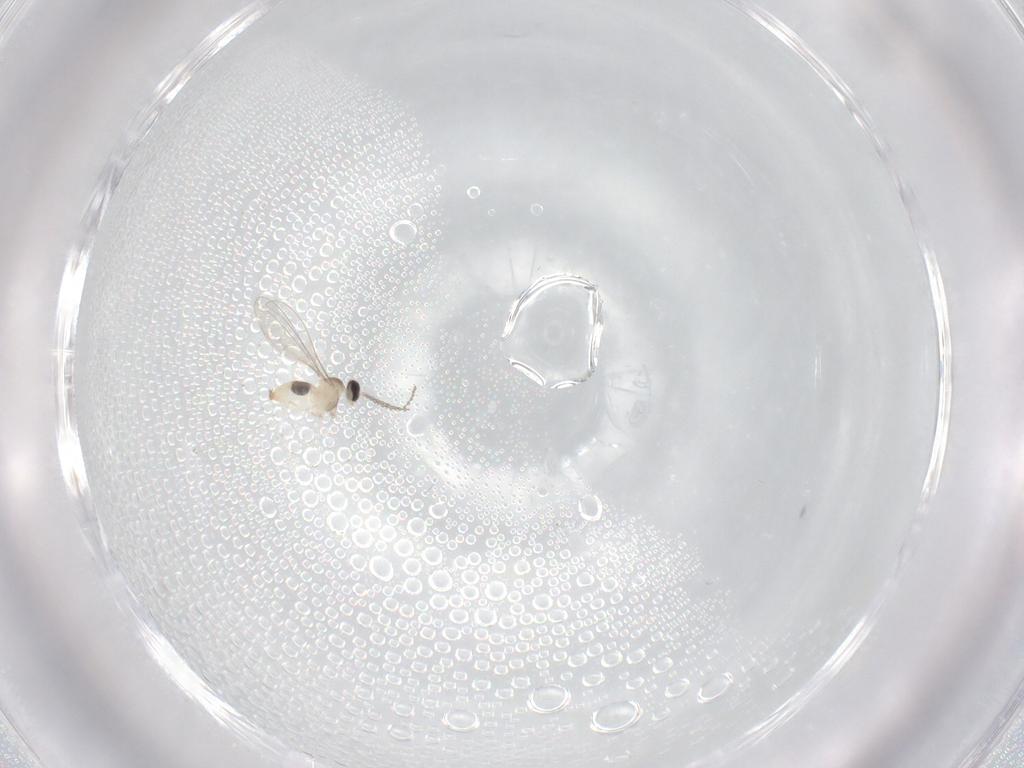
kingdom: Animalia
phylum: Arthropoda
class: Insecta
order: Diptera
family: Cecidomyiidae
